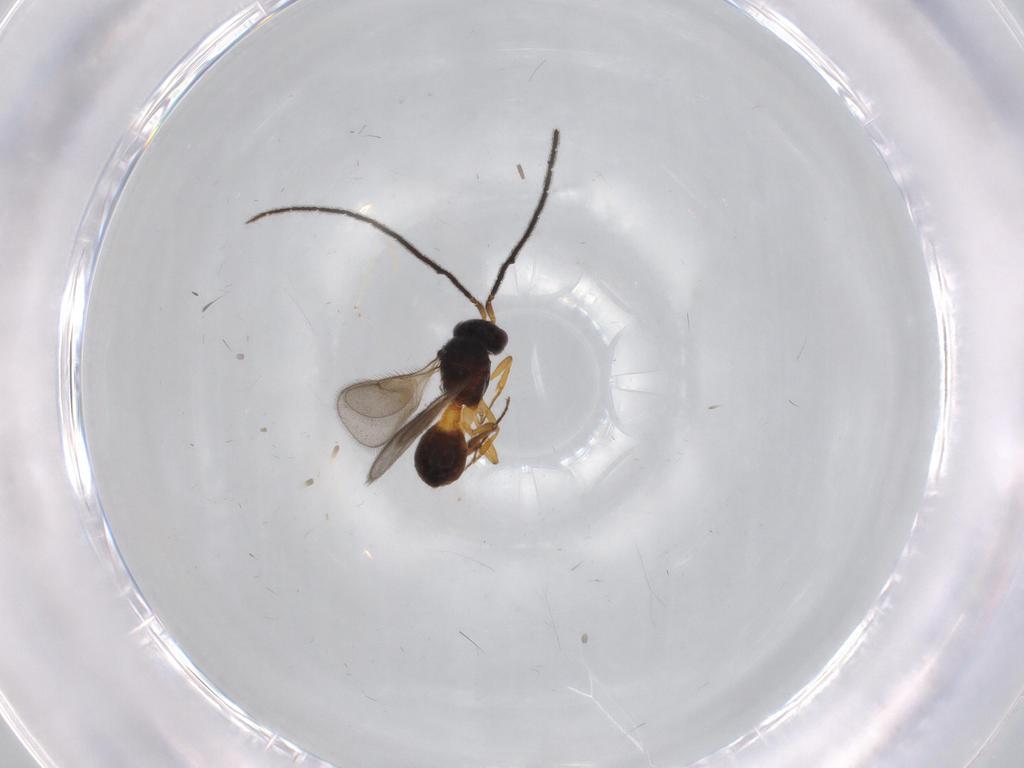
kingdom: Animalia
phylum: Arthropoda
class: Insecta
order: Hymenoptera
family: Scelionidae
